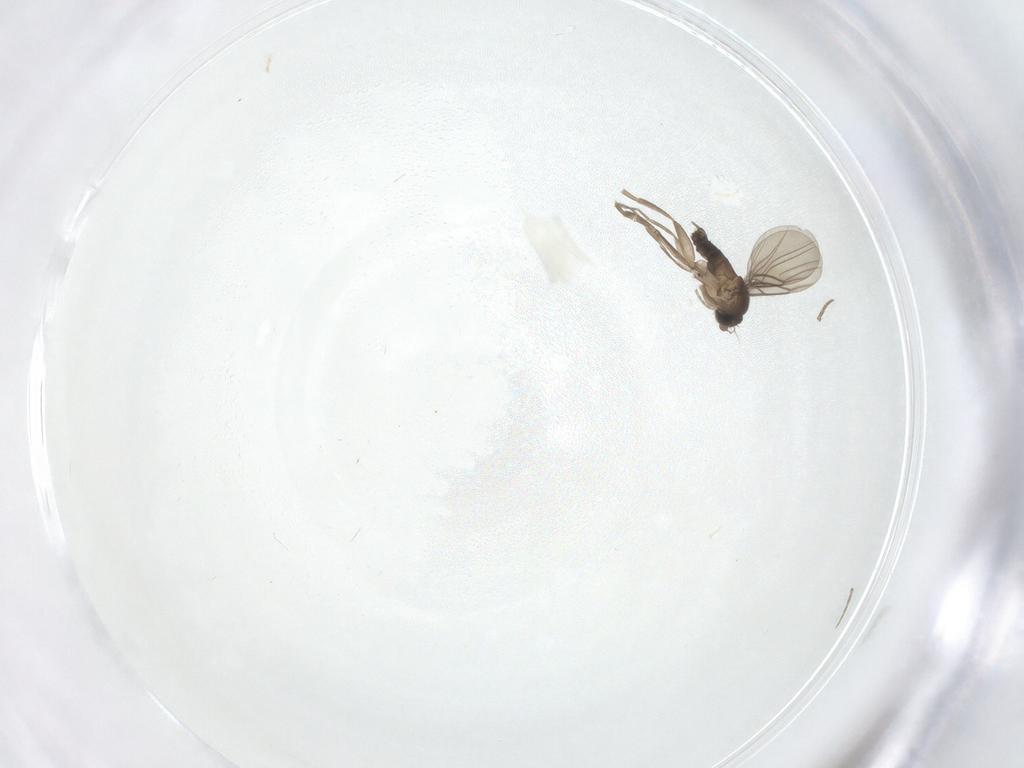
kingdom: Animalia
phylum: Arthropoda
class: Insecta
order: Diptera
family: Phoridae
